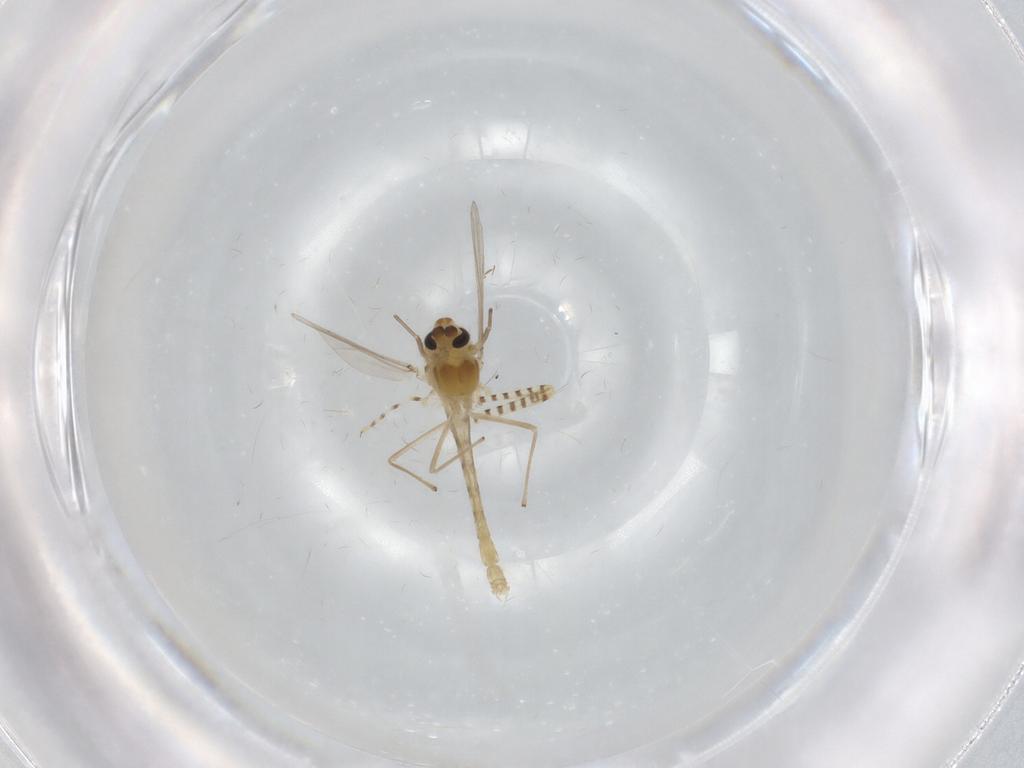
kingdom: Animalia
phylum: Arthropoda
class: Insecta
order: Diptera
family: Chaoboridae
